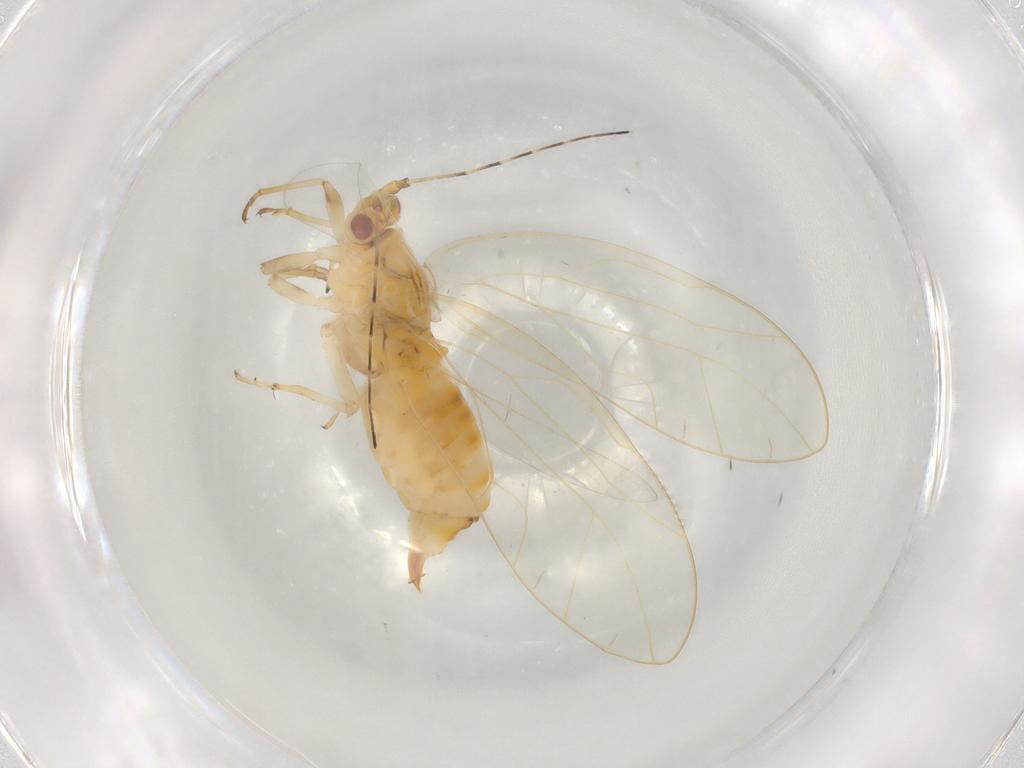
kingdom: Animalia
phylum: Arthropoda
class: Insecta
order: Hemiptera
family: Carsidaridae
